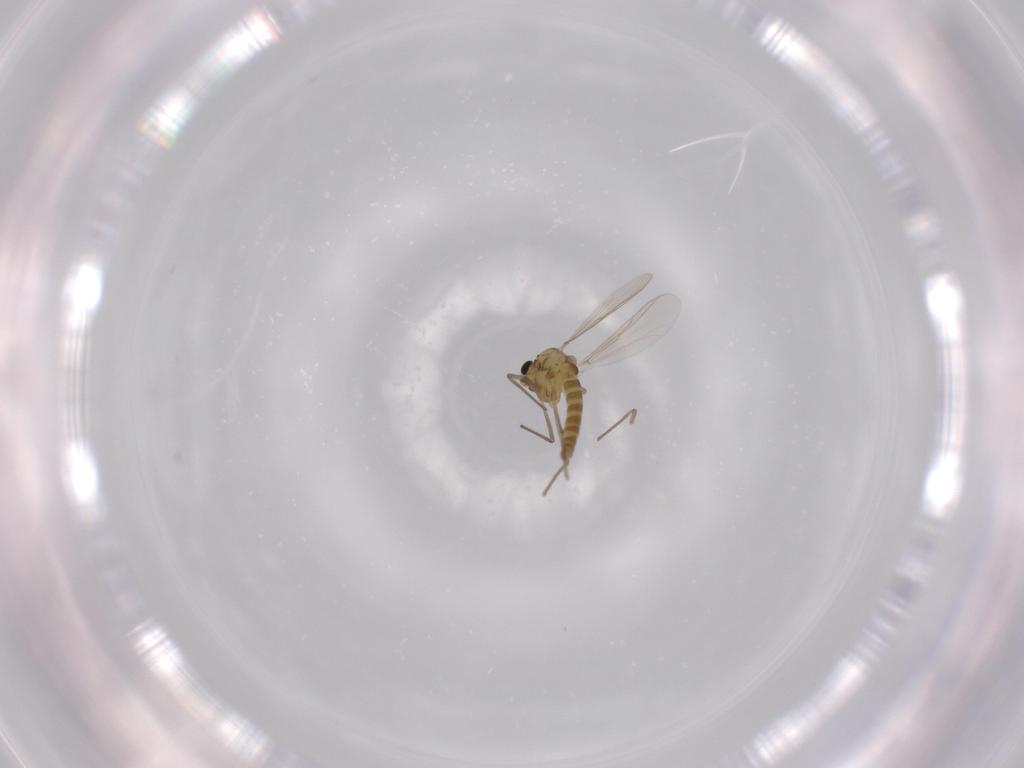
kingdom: Animalia
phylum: Arthropoda
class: Insecta
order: Diptera
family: Chironomidae
